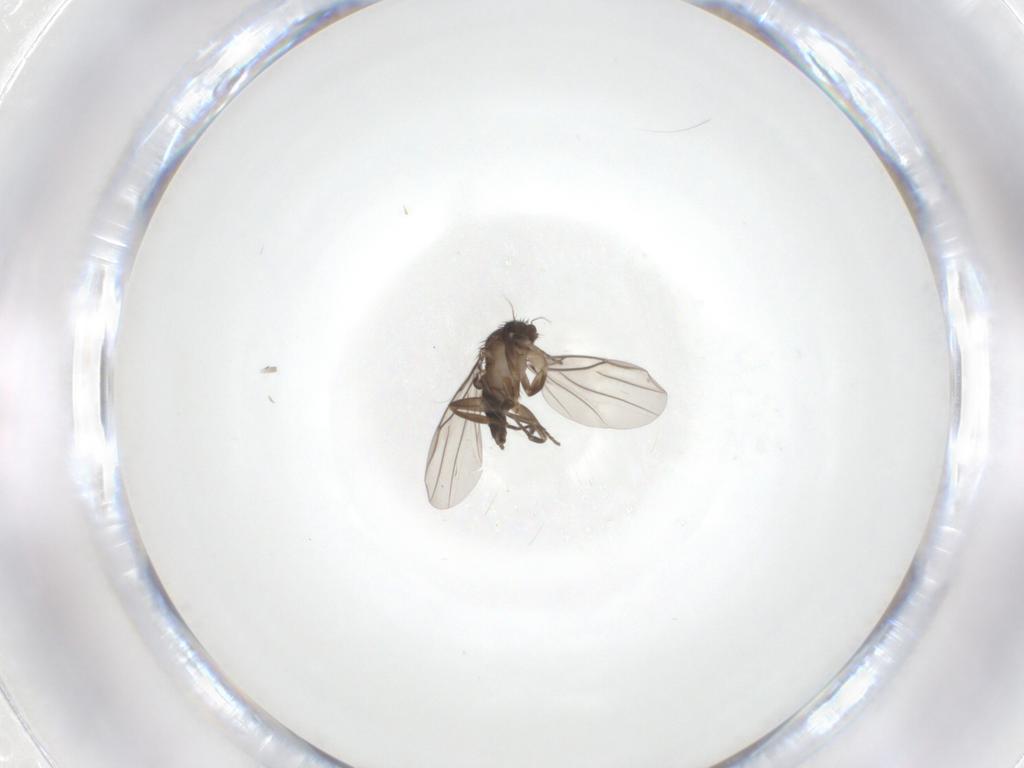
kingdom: Animalia
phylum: Arthropoda
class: Insecta
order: Diptera
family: Phoridae
